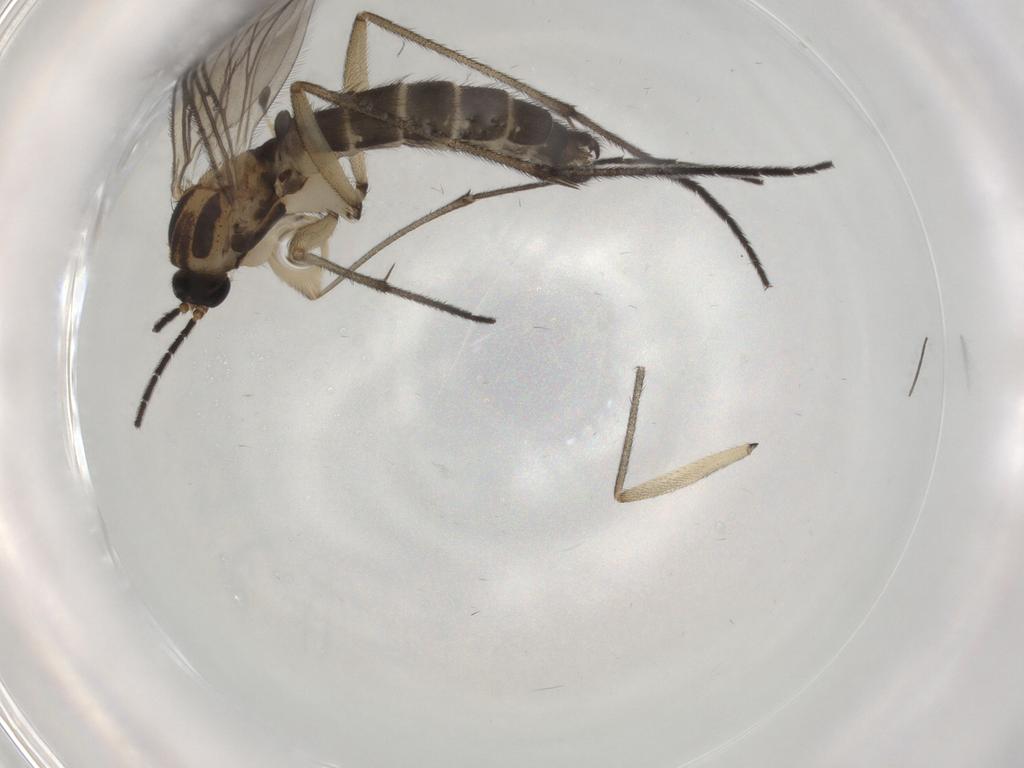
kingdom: Animalia
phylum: Arthropoda
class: Insecta
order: Diptera
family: Sciaridae
